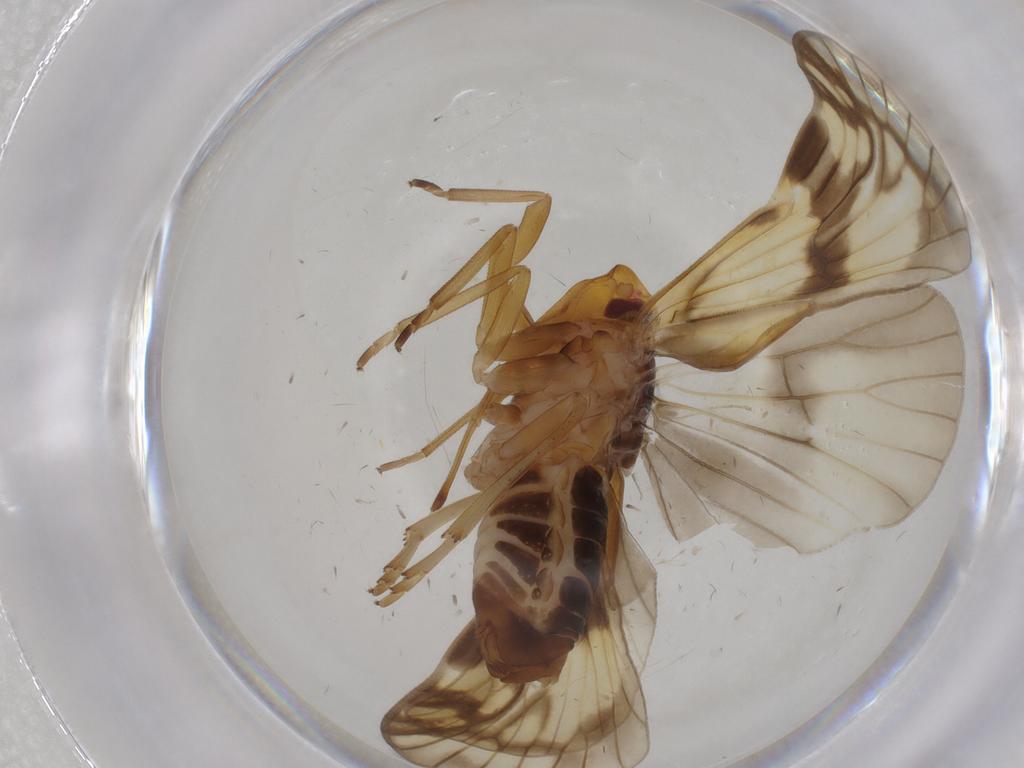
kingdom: Animalia
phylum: Arthropoda
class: Insecta
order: Hemiptera
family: Cixiidae
